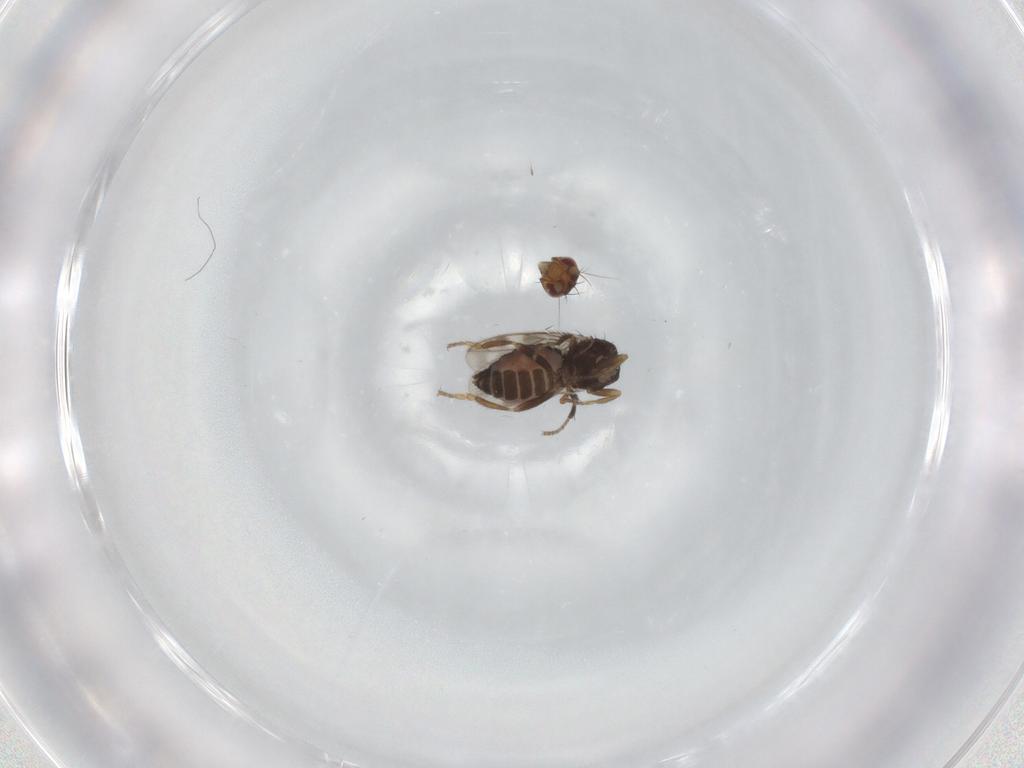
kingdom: Animalia
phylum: Arthropoda
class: Insecta
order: Diptera
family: Sphaeroceridae
